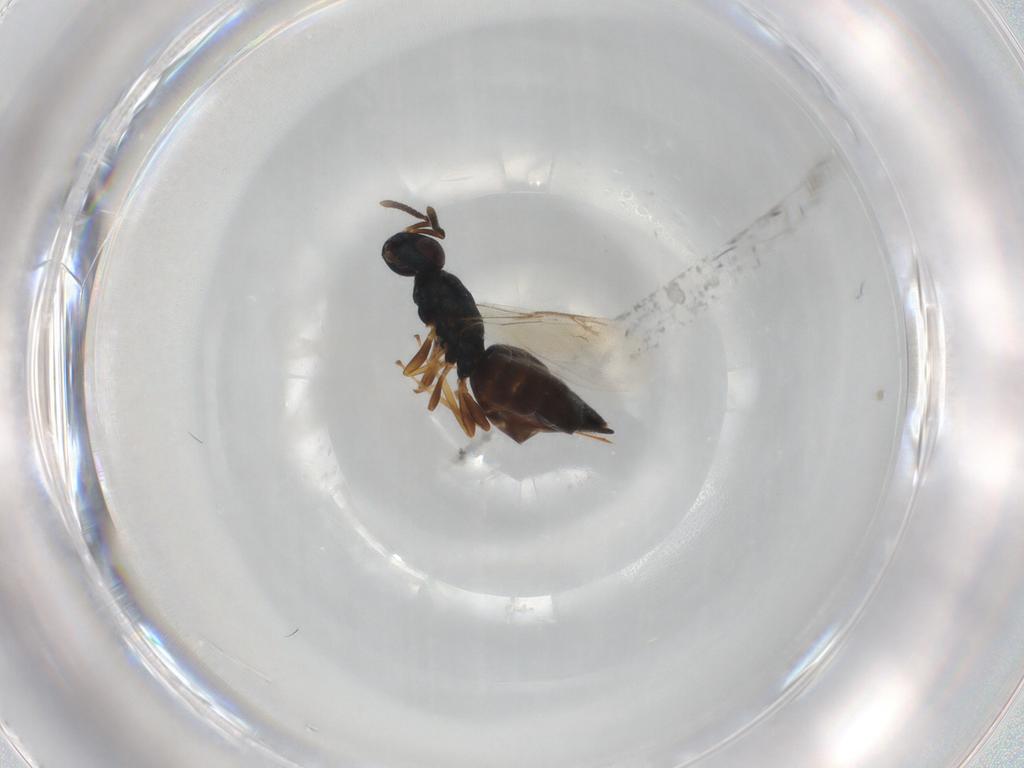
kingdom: Animalia
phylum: Arthropoda
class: Insecta
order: Hymenoptera
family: Pteromalidae
